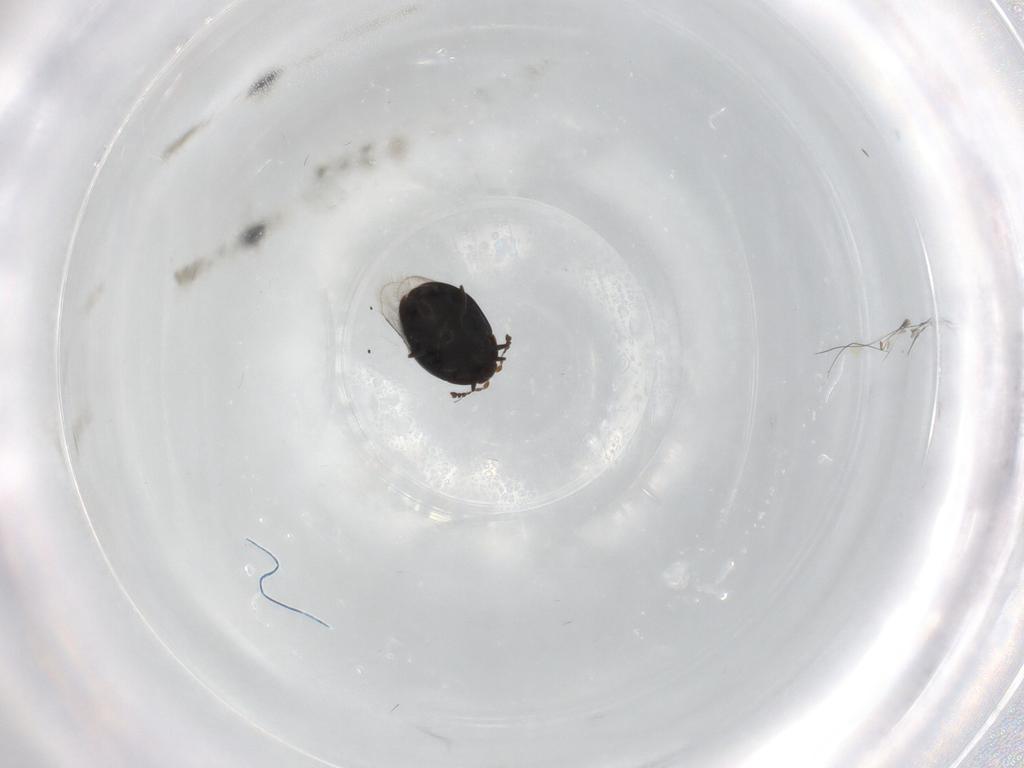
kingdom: Animalia
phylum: Arthropoda
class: Insecta
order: Coleoptera
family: Corylophidae
